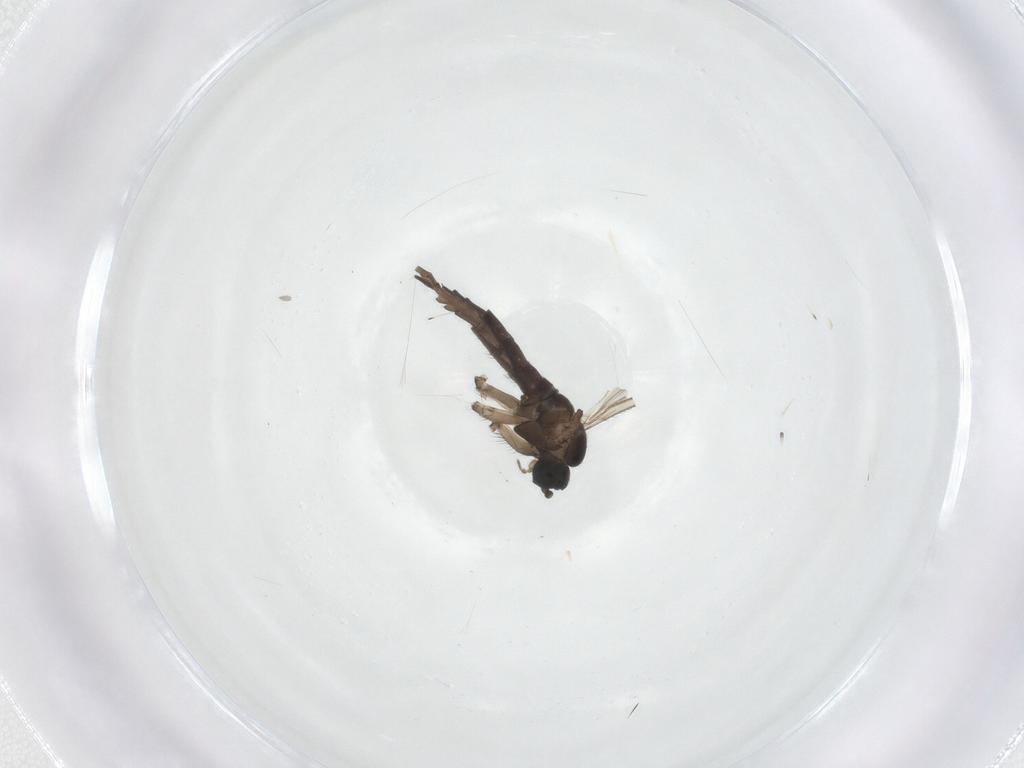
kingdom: Animalia
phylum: Arthropoda
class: Insecta
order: Diptera
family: Sciaridae
